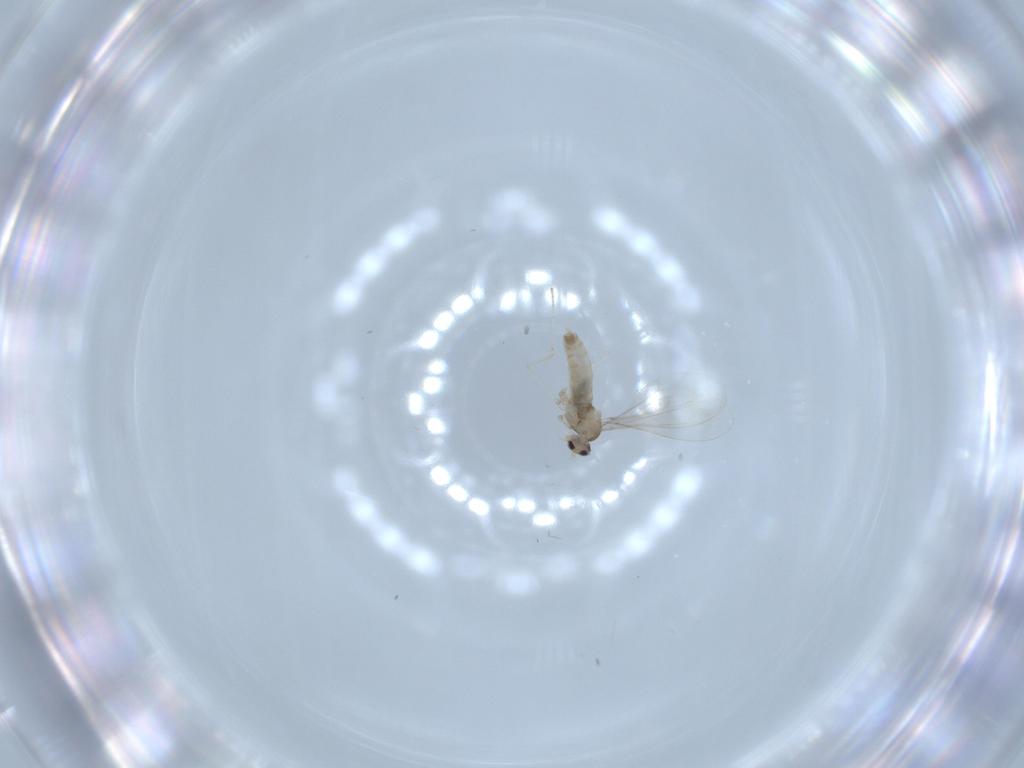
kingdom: Animalia
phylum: Arthropoda
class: Insecta
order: Diptera
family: Cecidomyiidae
